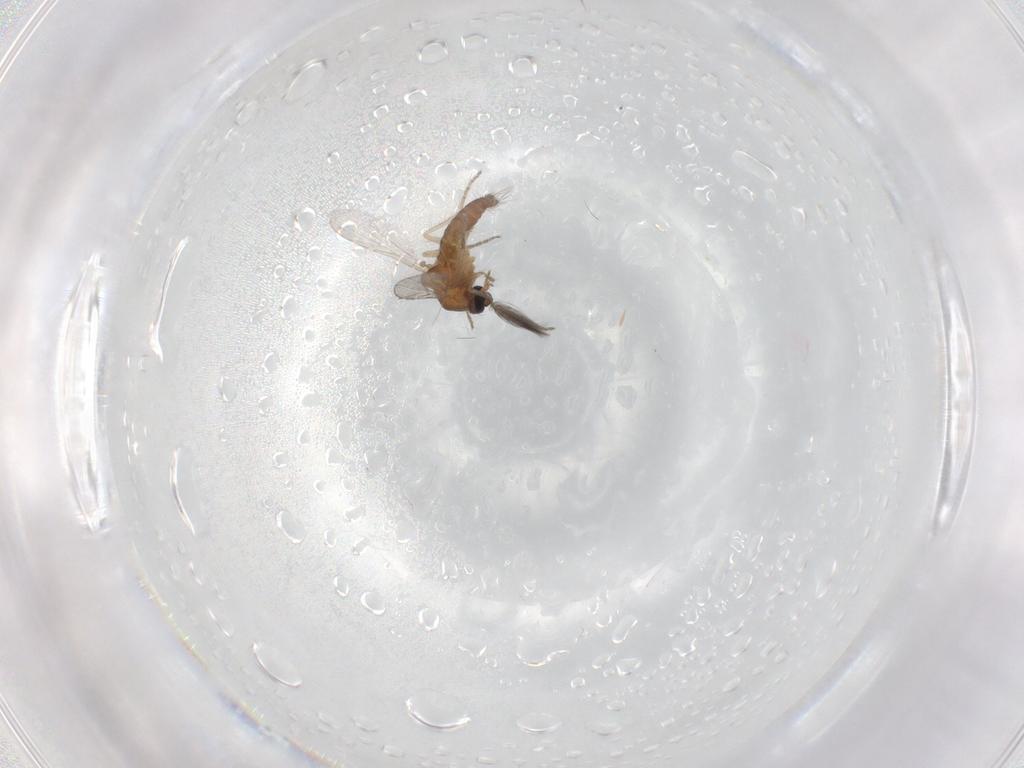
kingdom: Animalia
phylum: Arthropoda
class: Insecta
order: Diptera
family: Ceratopogonidae
